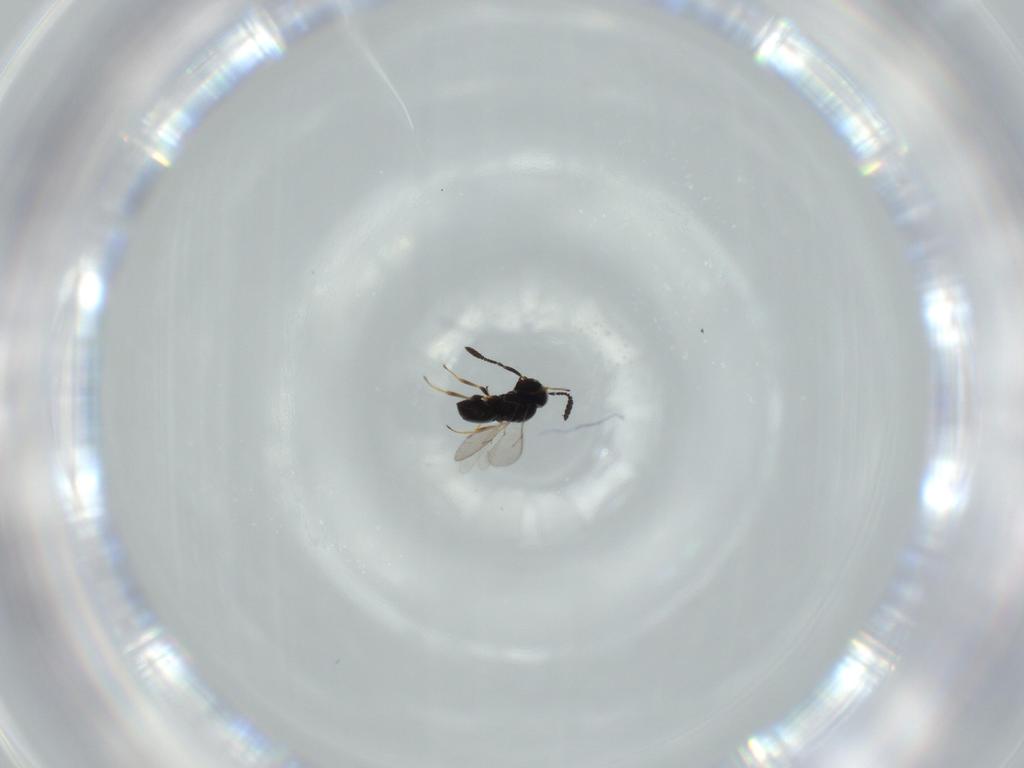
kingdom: Animalia
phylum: Arthropoda
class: Insecta
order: Hymenoptera
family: Scelionidae
